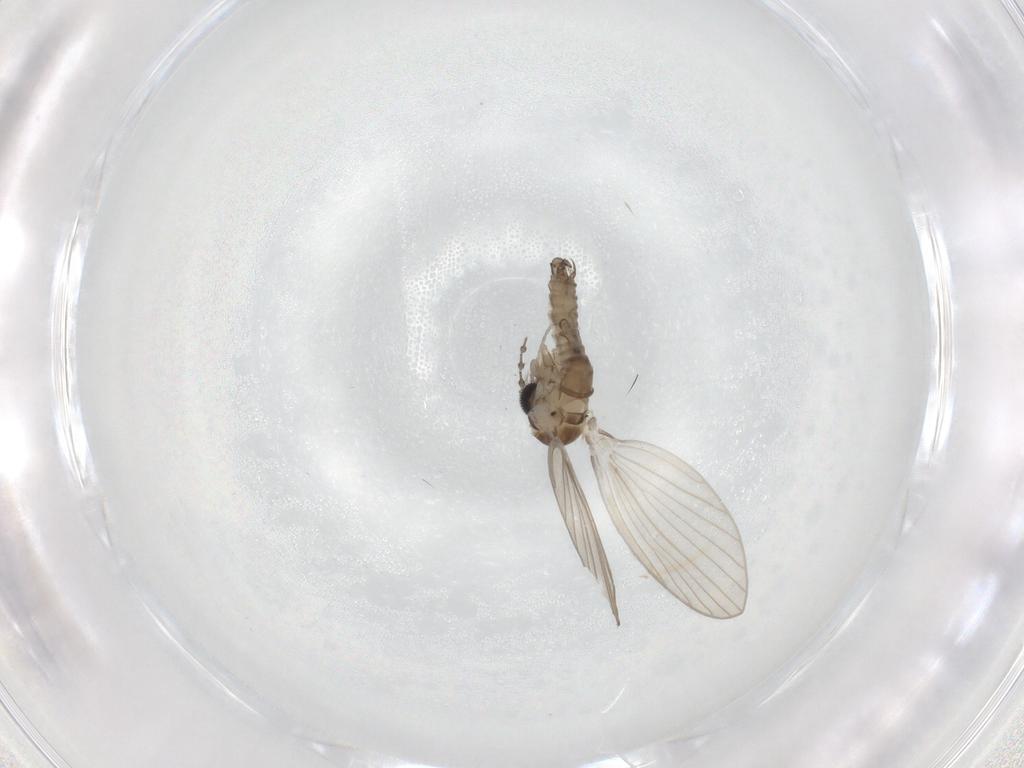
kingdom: Animalia
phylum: Arthropoda
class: Insecta
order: Diptera
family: Psychodidae
